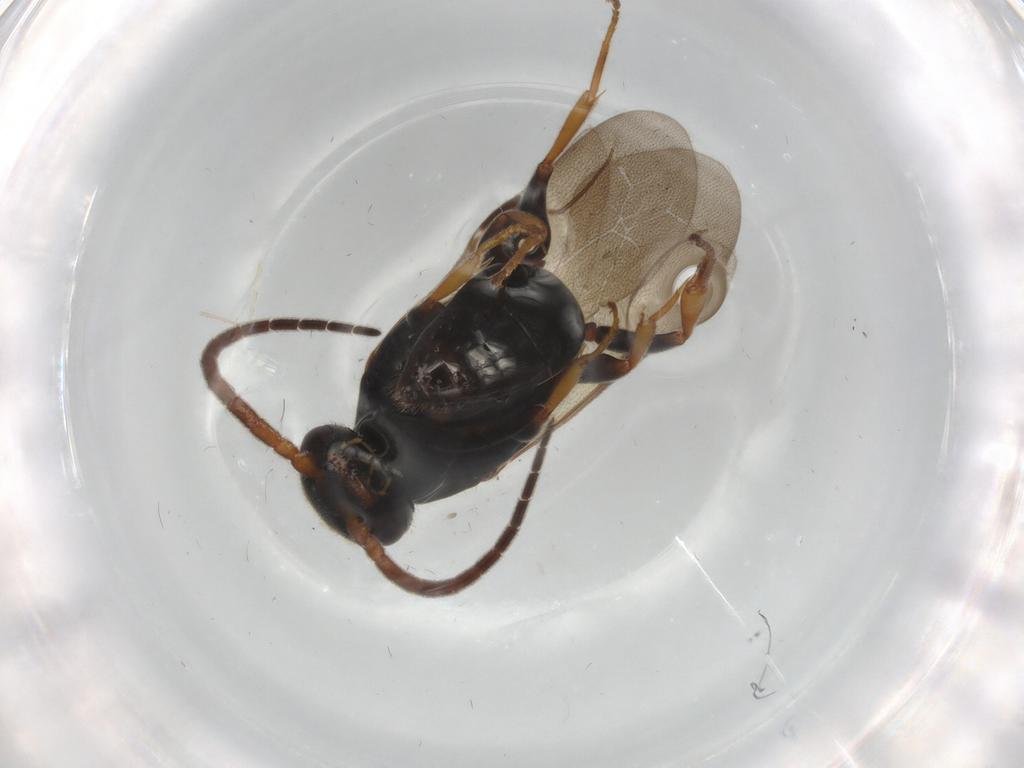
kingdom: Animalia
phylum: Arthropoda
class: Insecta
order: Hymenoptera
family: Bethylidae
